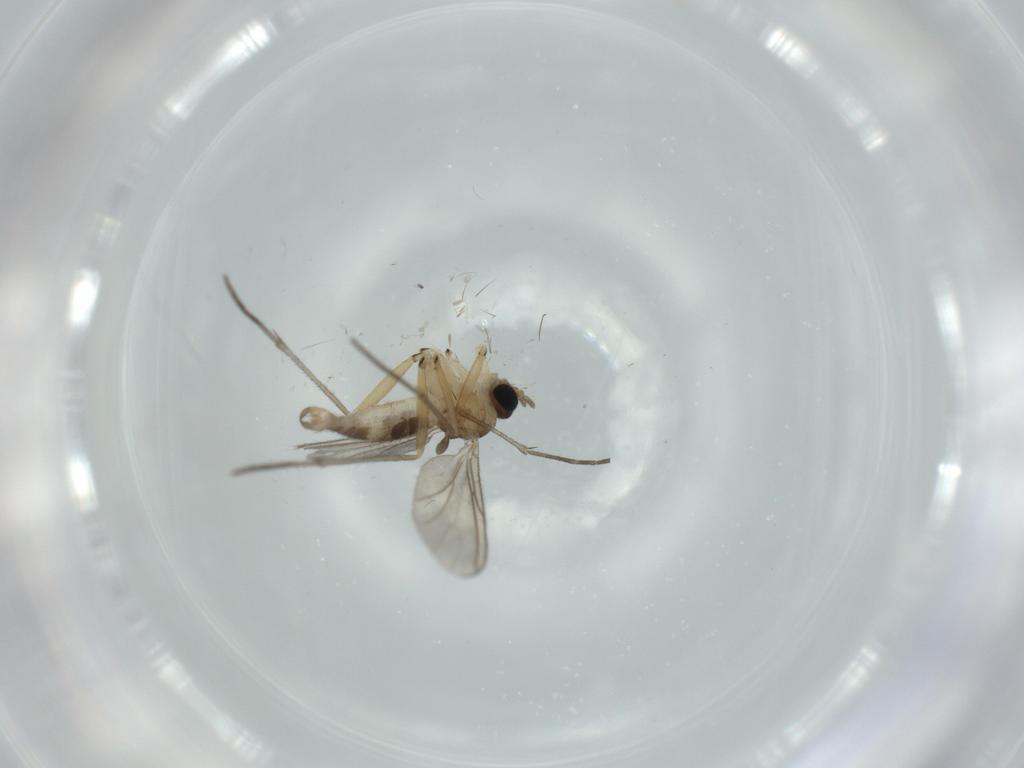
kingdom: Animalia
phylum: Arthropoda
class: Insecta
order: Diptera
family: Sciaridae
